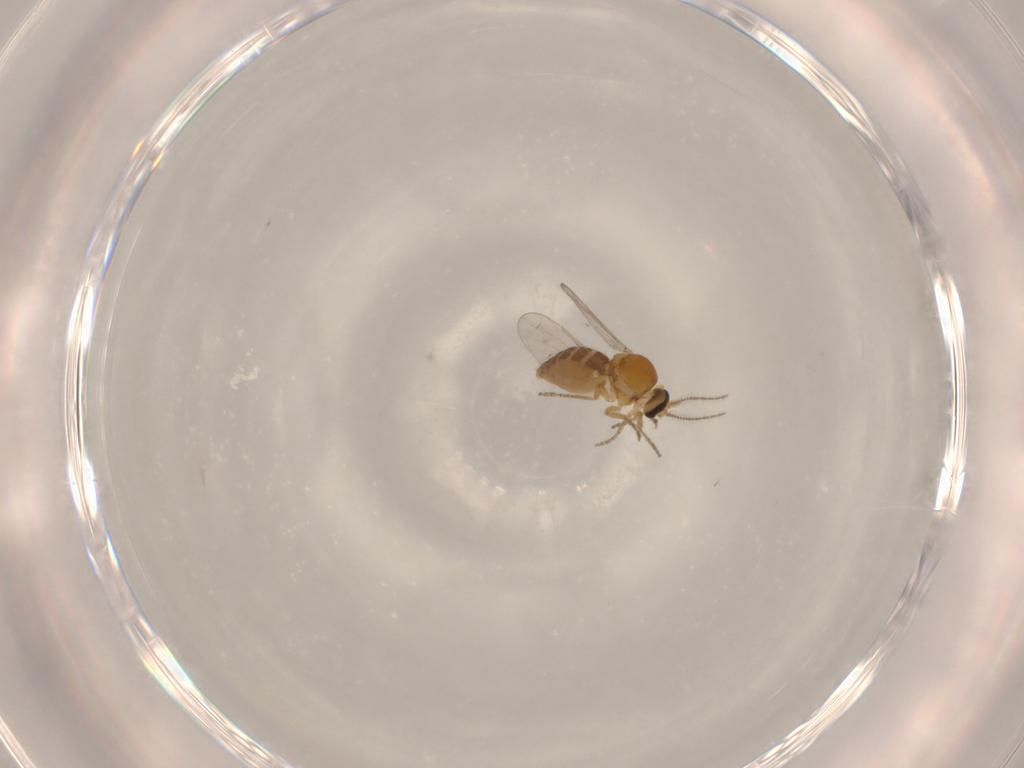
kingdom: Animalia
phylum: Arthropoda
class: Insecta
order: Diptera
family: Ceratopogonidae
